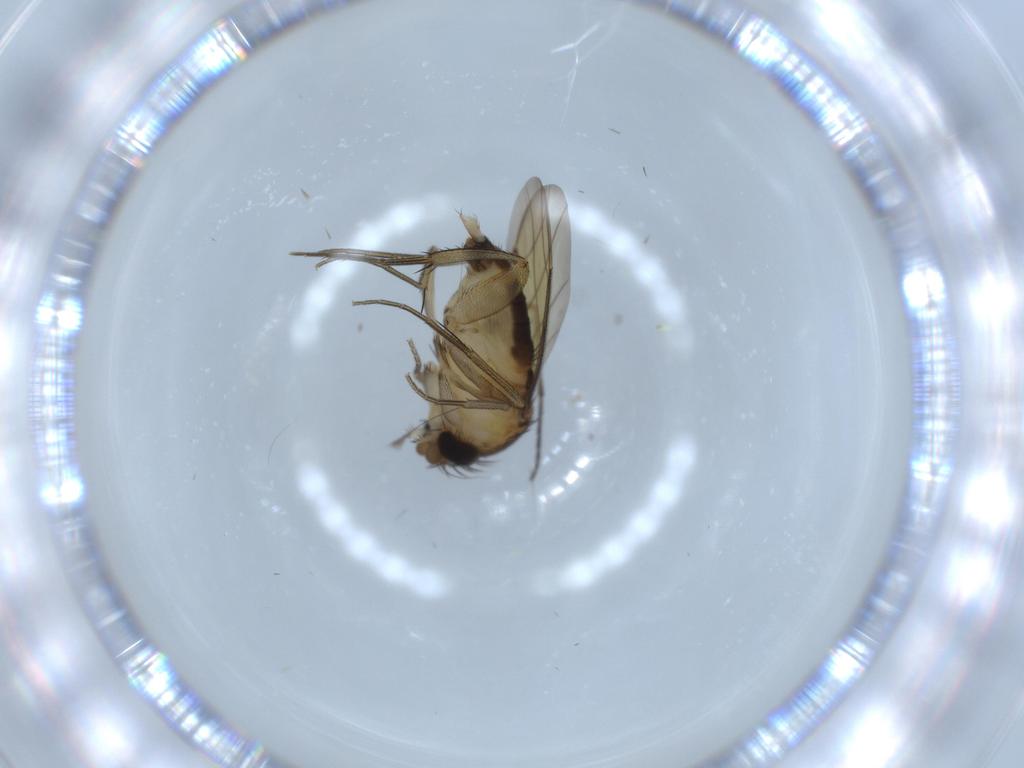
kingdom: Animalia
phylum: Arthropoda
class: Insecta
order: Diptera
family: Sciaridae
